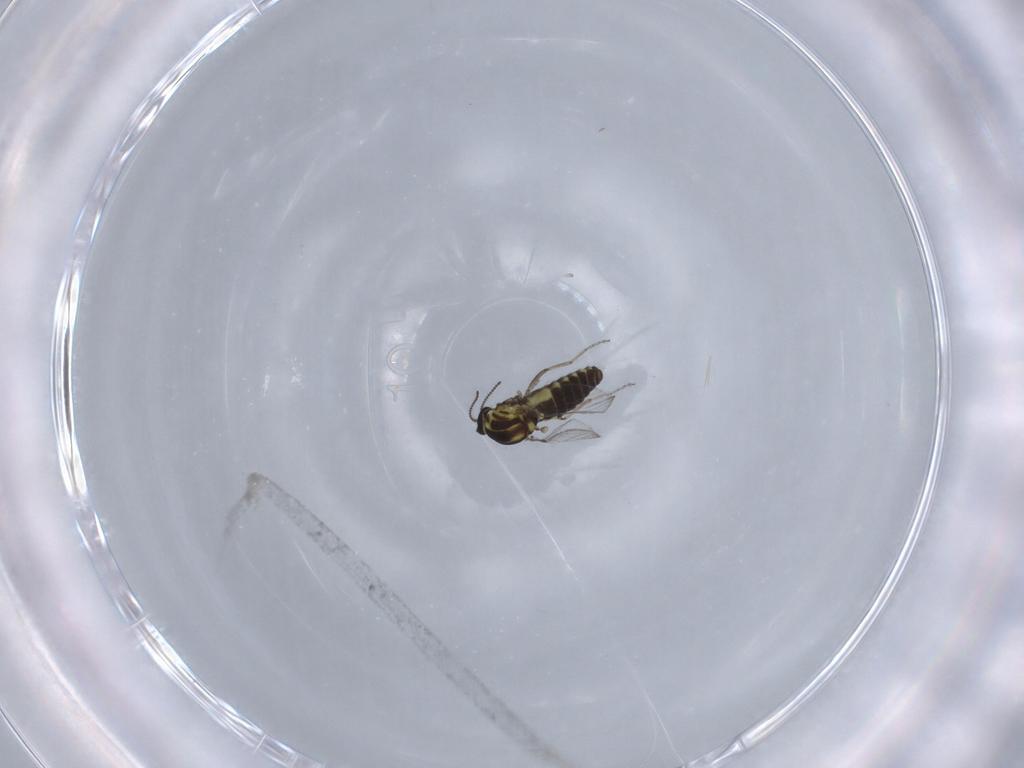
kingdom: Animalia
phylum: Arthropoda
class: Insecta
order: Diptera
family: Ceratopogonidae
